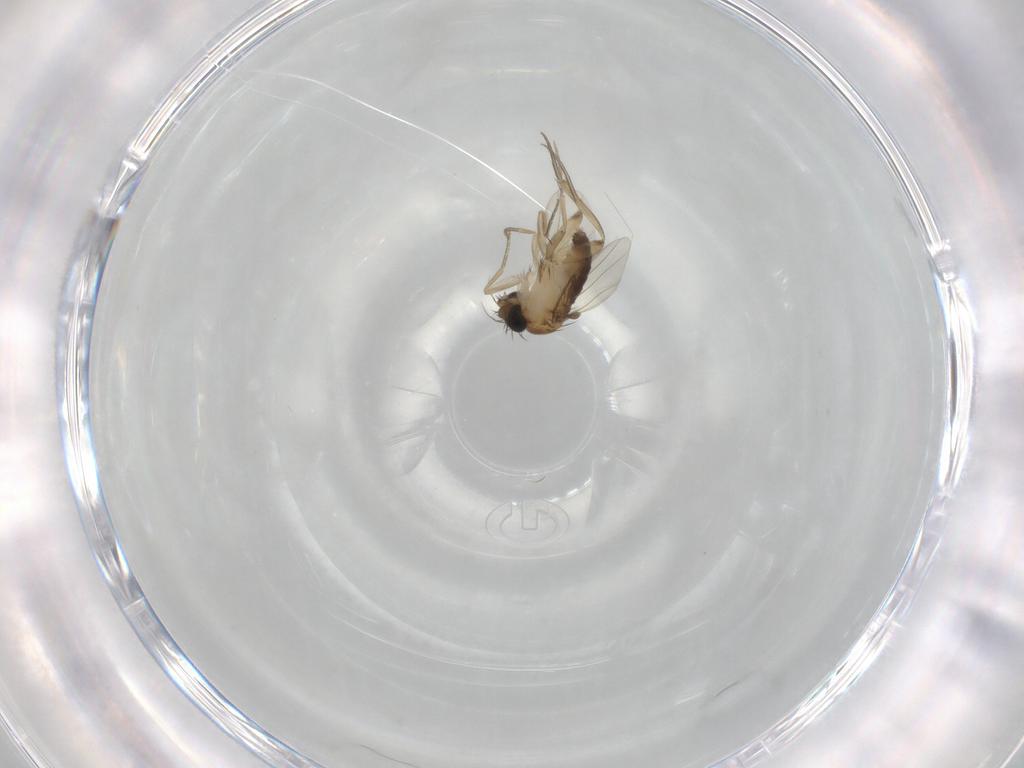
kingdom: Animalia
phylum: Arthropoda
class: Insecta
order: Diptera
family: Phoridae
